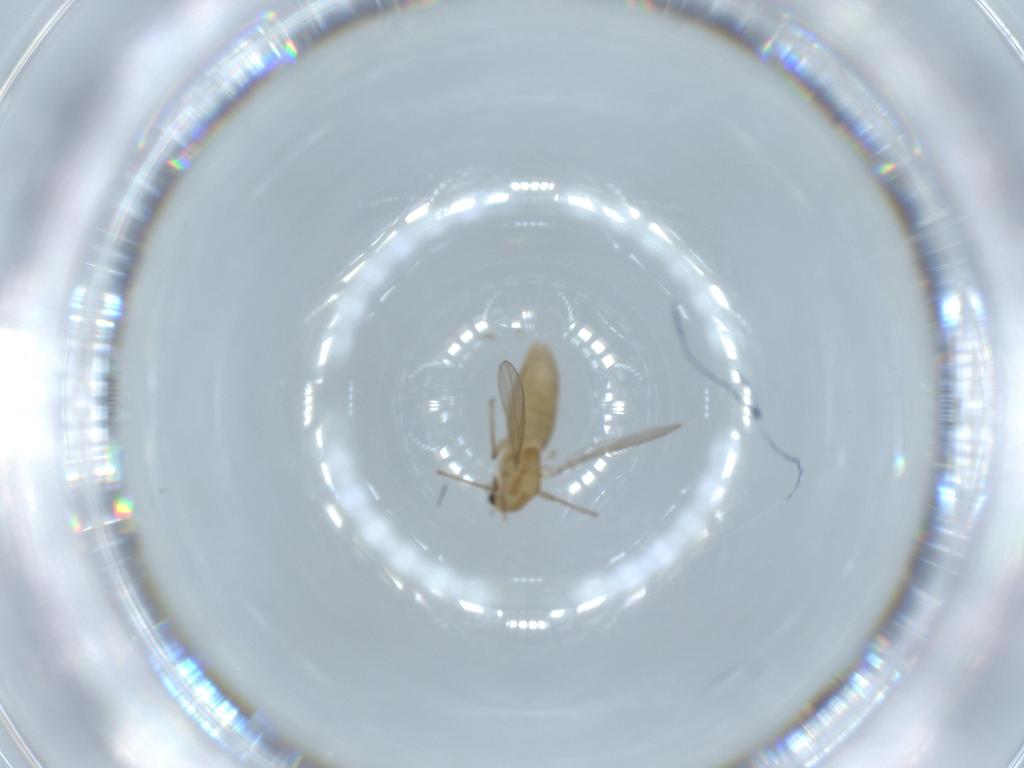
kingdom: Animalia
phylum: Arthropoda
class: Insecta
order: Diptera
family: Chironomidae
